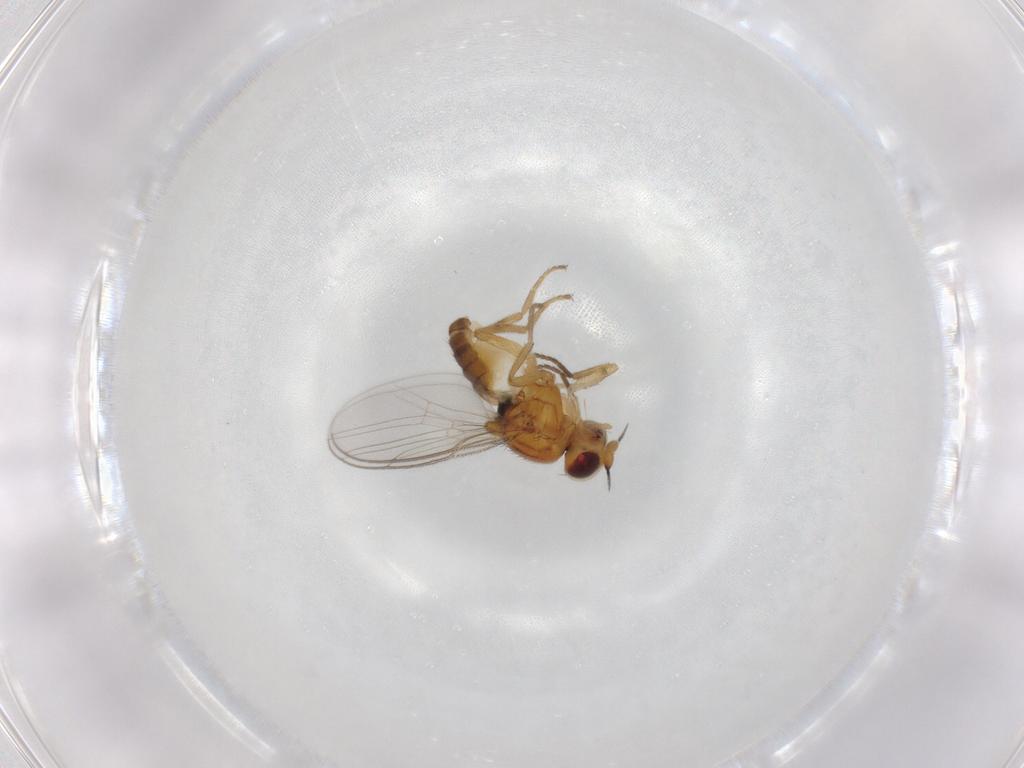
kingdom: Animalia
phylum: Arthropoda
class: Insecta
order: Diptera
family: Chloropidae
